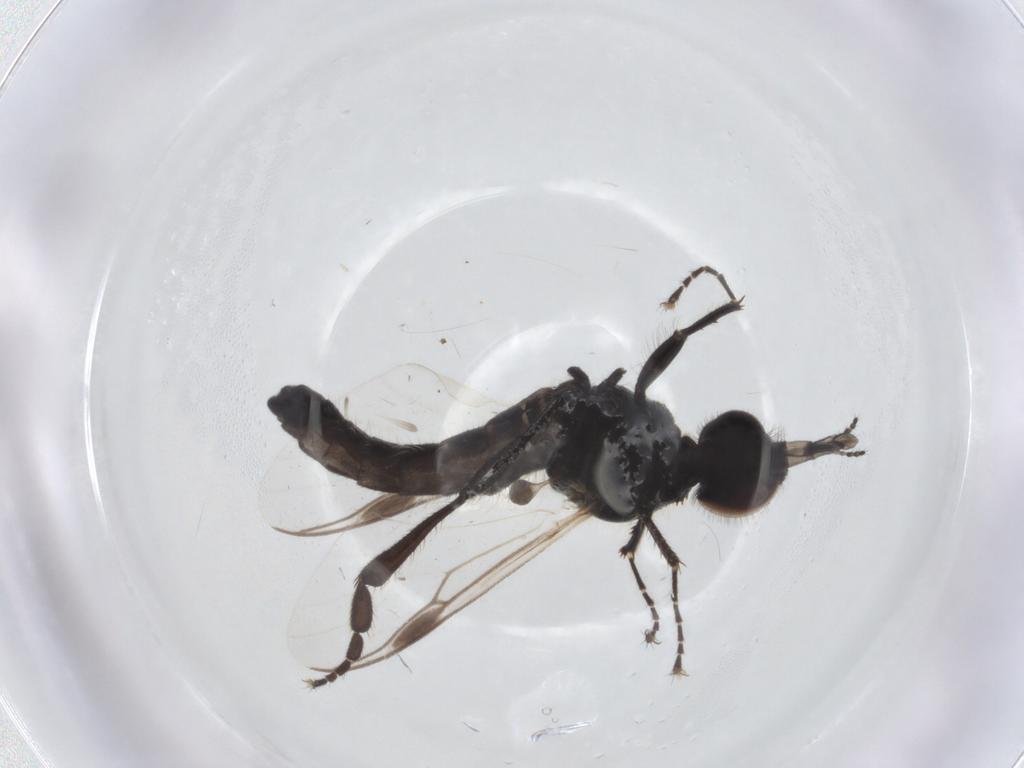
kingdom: Animalia
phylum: Arthropoda
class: Insecta
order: Diptera
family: Bibionidae
